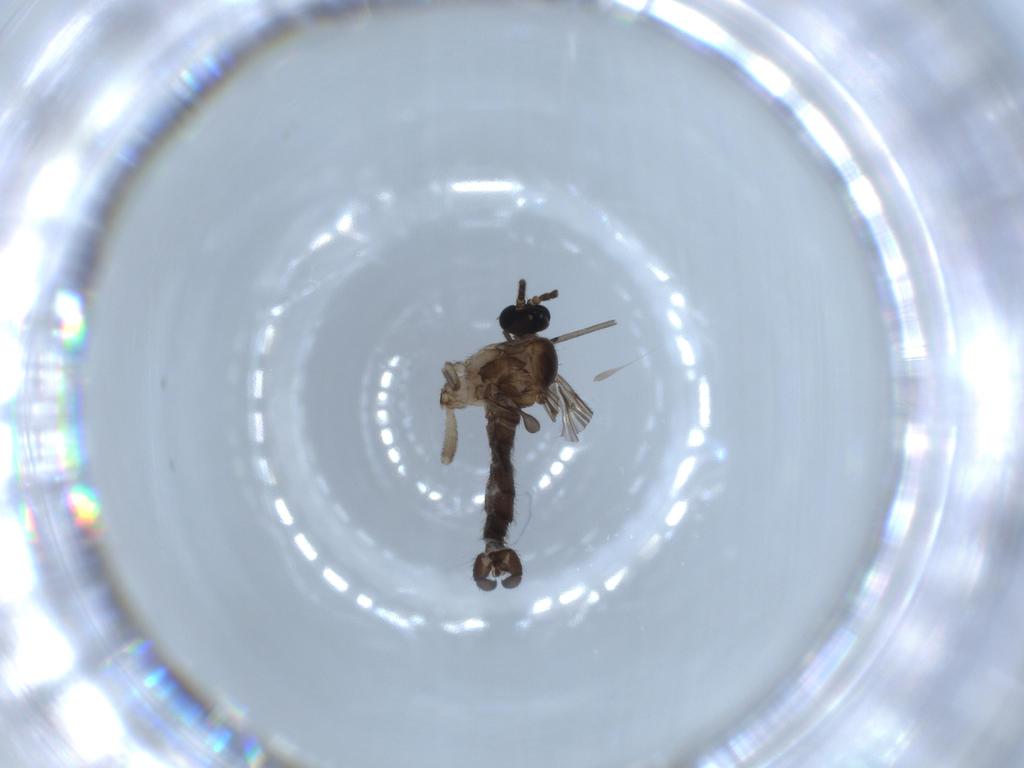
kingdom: Animalia
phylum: Arthropoda
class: Insecta
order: Diptera
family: Sciaridae
